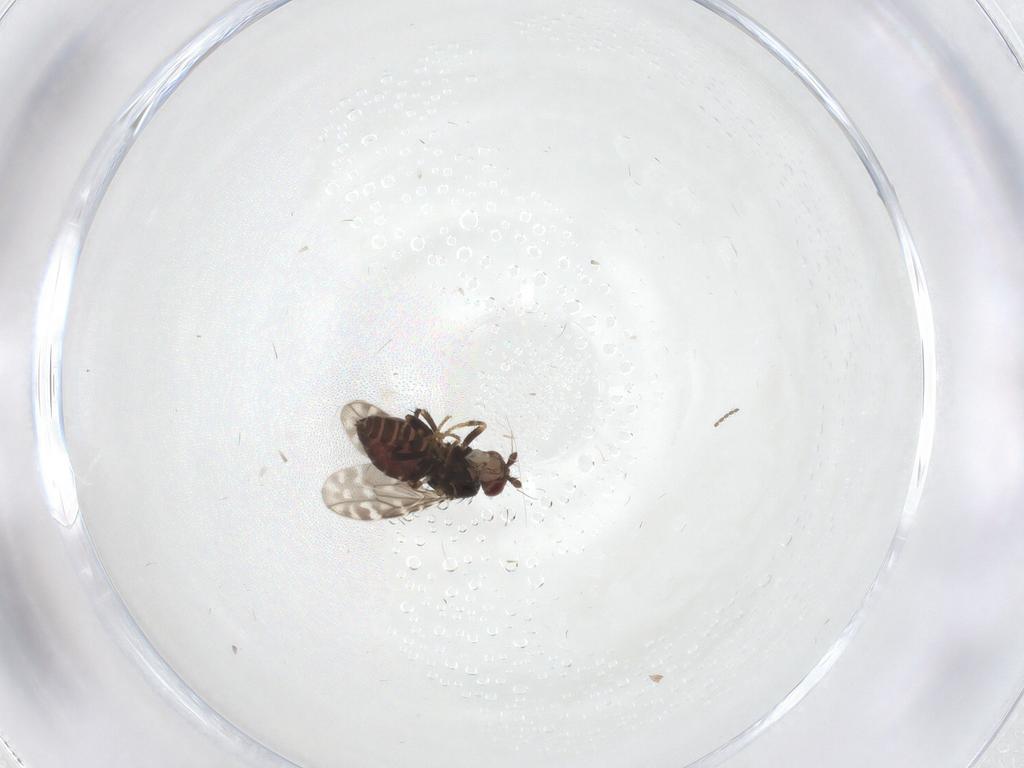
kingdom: Animalia
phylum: Arthropoda
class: Insecta
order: Diptera
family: Sphaeroceridae
